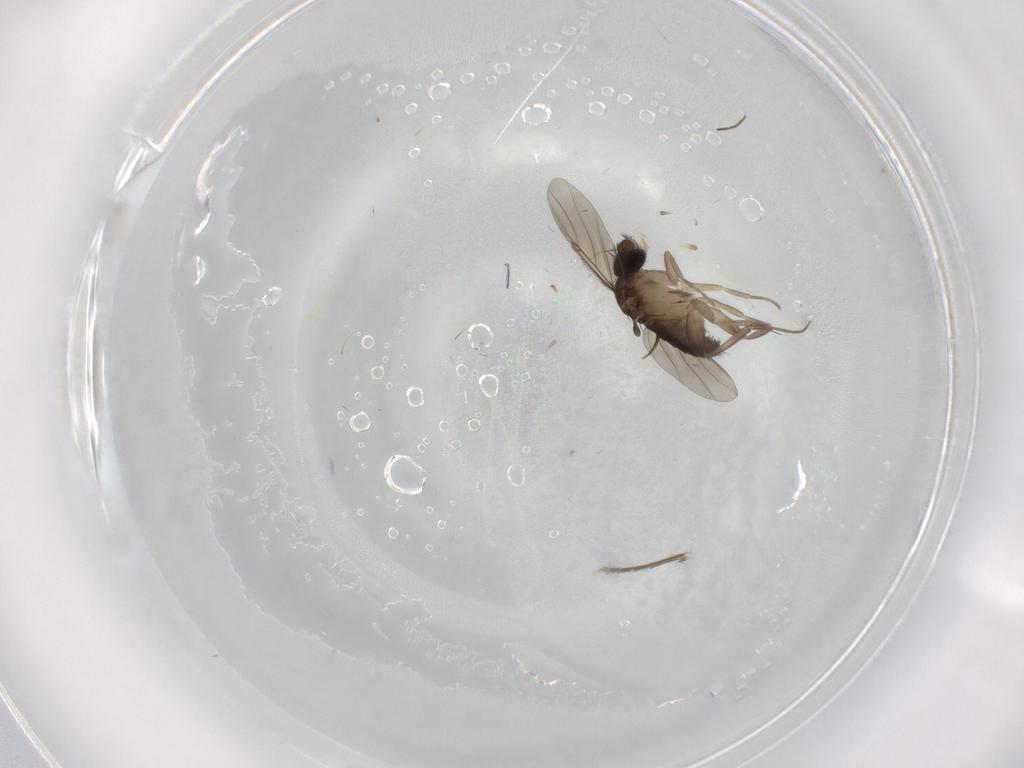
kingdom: Animalia
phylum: Arthropoda
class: Insecta
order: Diptera
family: Phoridae
